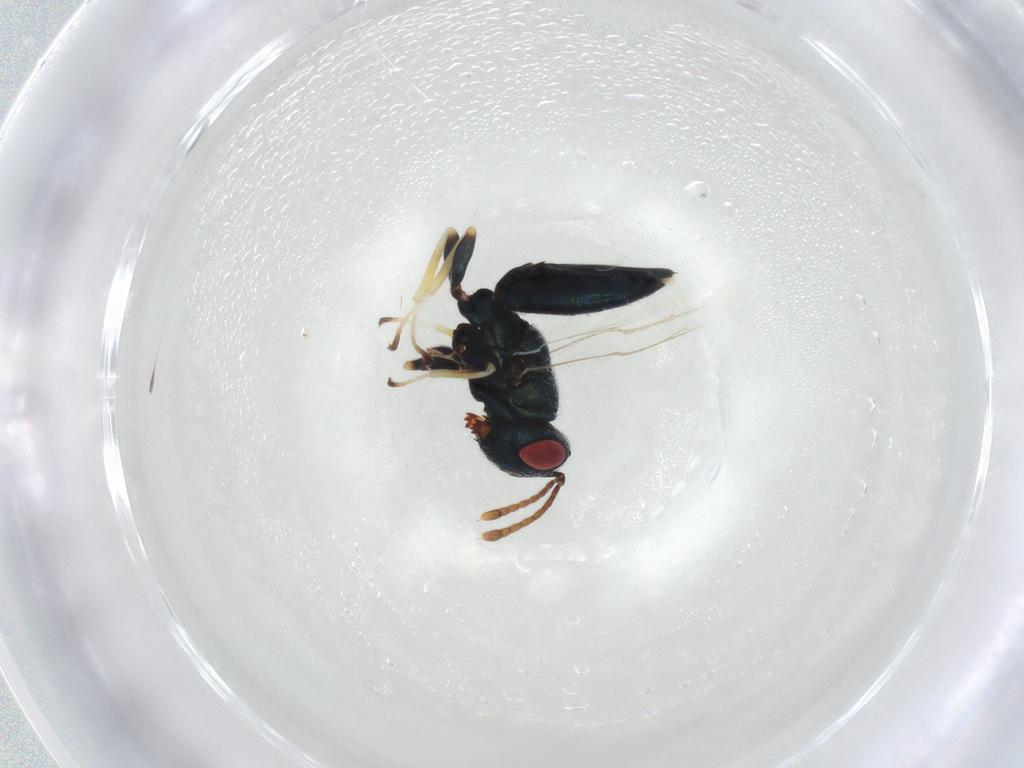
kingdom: Animalia
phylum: Arthropoda
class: Insecta
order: Hymenoptera
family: Pteromalidae
